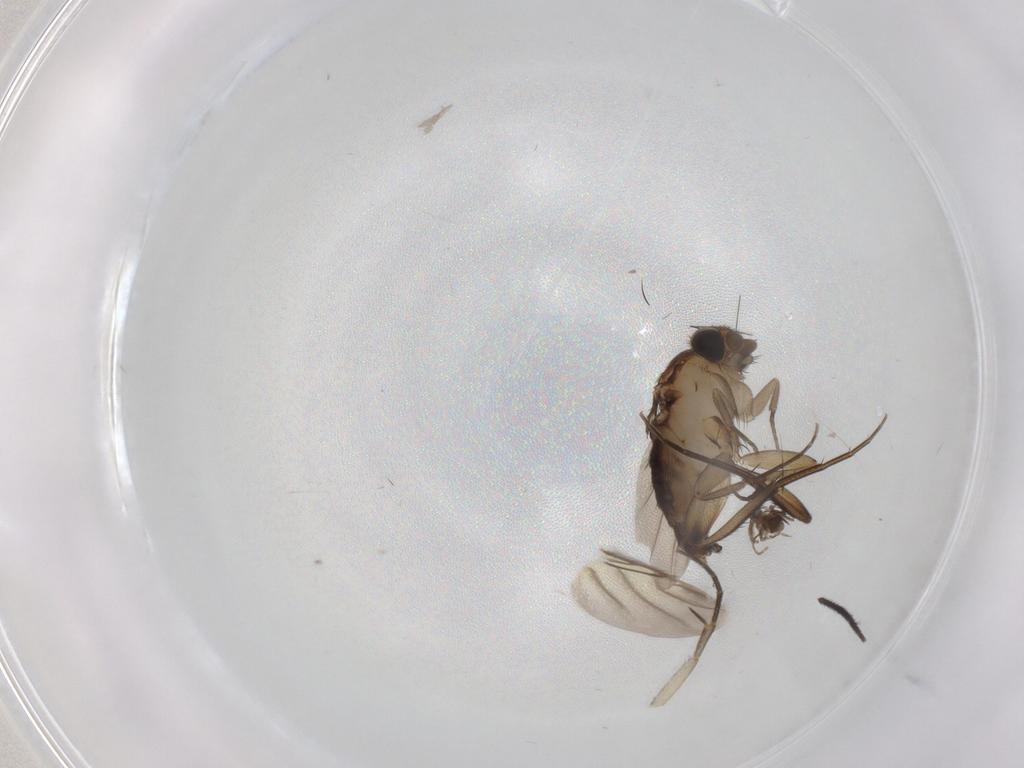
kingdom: Animalia
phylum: Arthropoda
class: Insecta
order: Diptera
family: Phoridae
